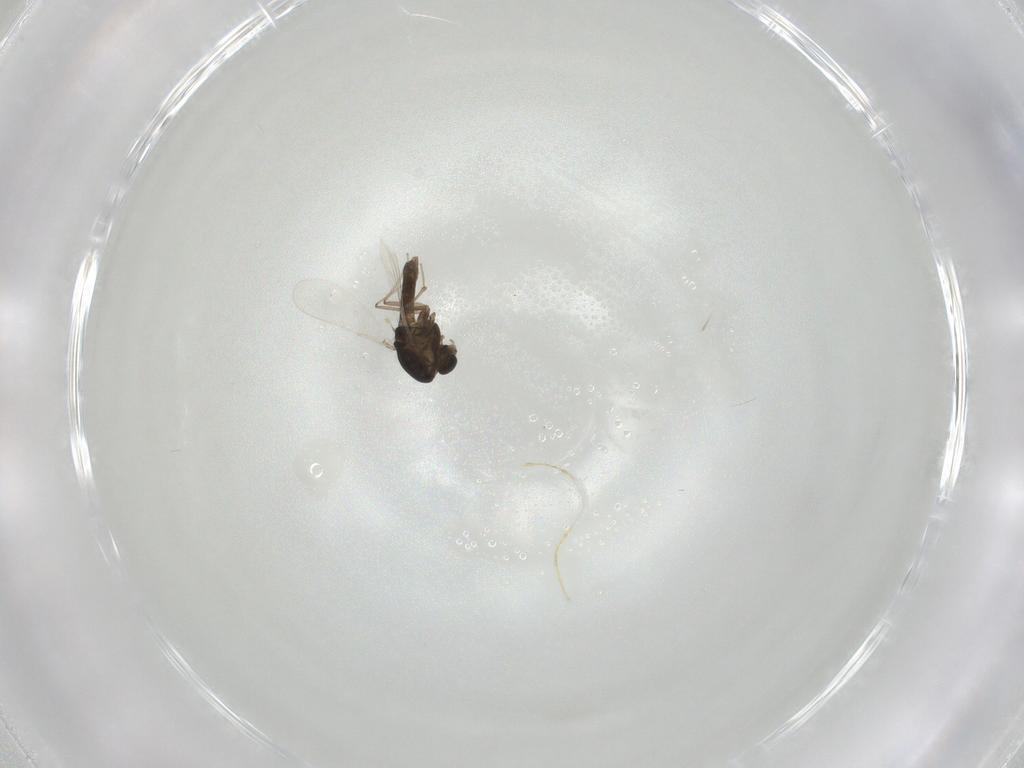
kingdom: Animalia
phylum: Arthropoda
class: Insecta
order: Diptera
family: Chironomidae
